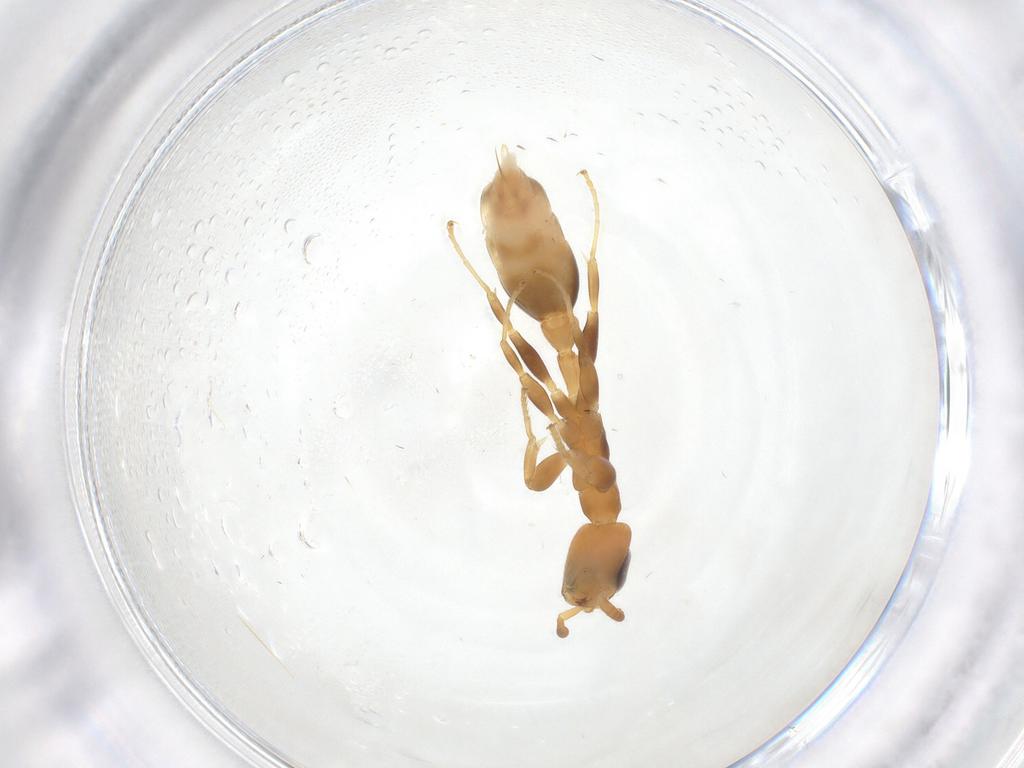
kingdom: Animalia
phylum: Arthropoda
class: Insecta
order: Hymenoptera
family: Formicidae
